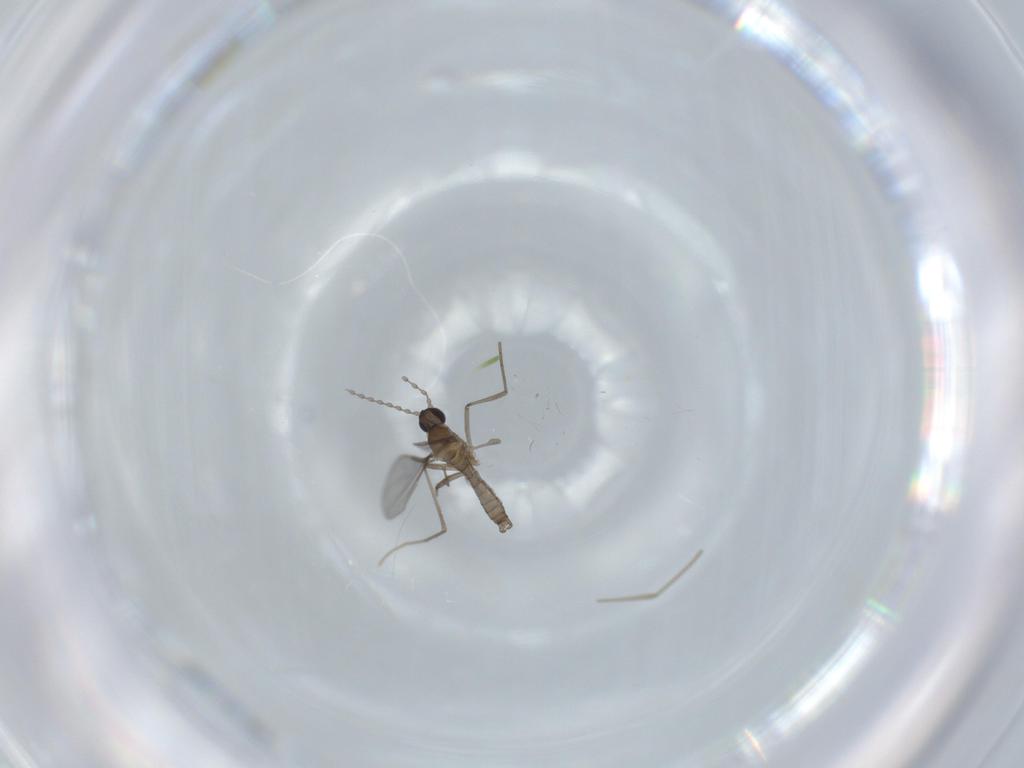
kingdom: Animalia
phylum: Arthropoda
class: Insecta
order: Diptera
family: Cecidomyiidae
